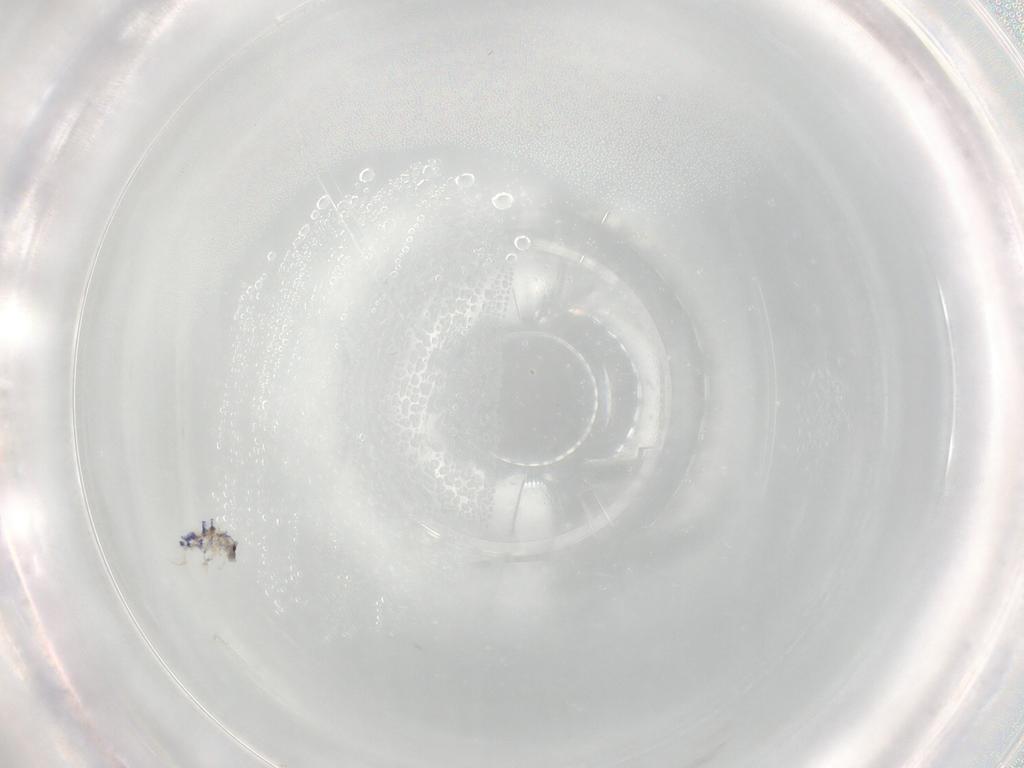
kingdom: Animalia
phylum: Arthropoda
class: Collembola
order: Entomobryomorpha
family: Entomobryidae
